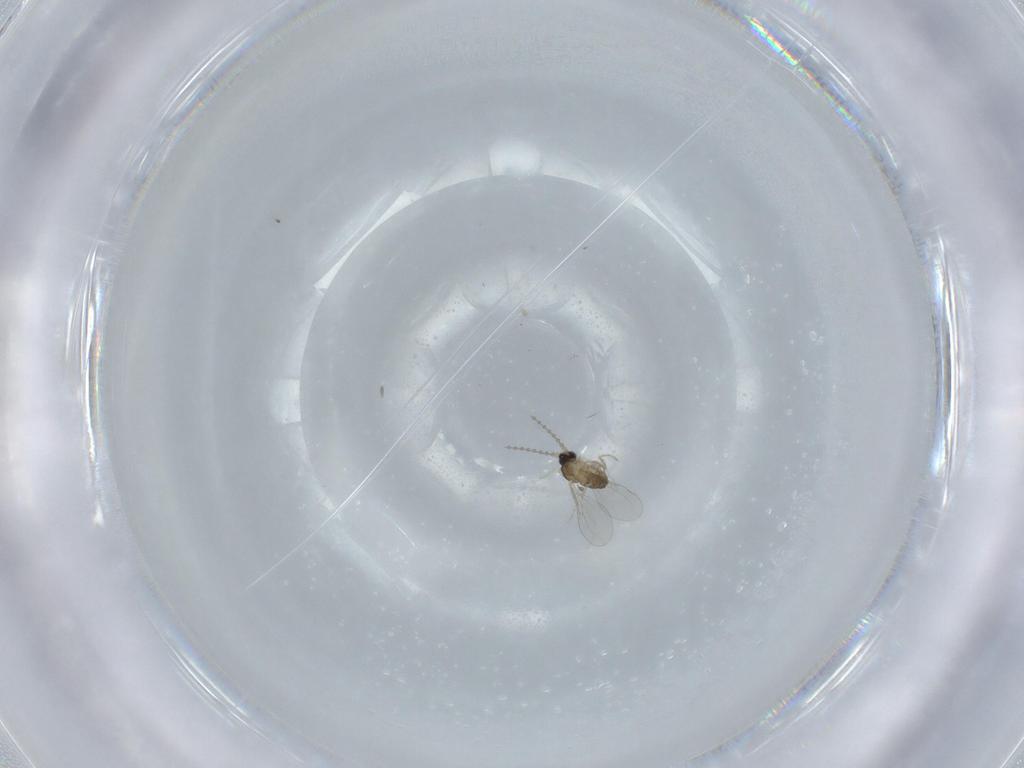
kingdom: Animalia
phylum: Arthropoda
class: Insecta
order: Diptera
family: Cecidomyiidae
